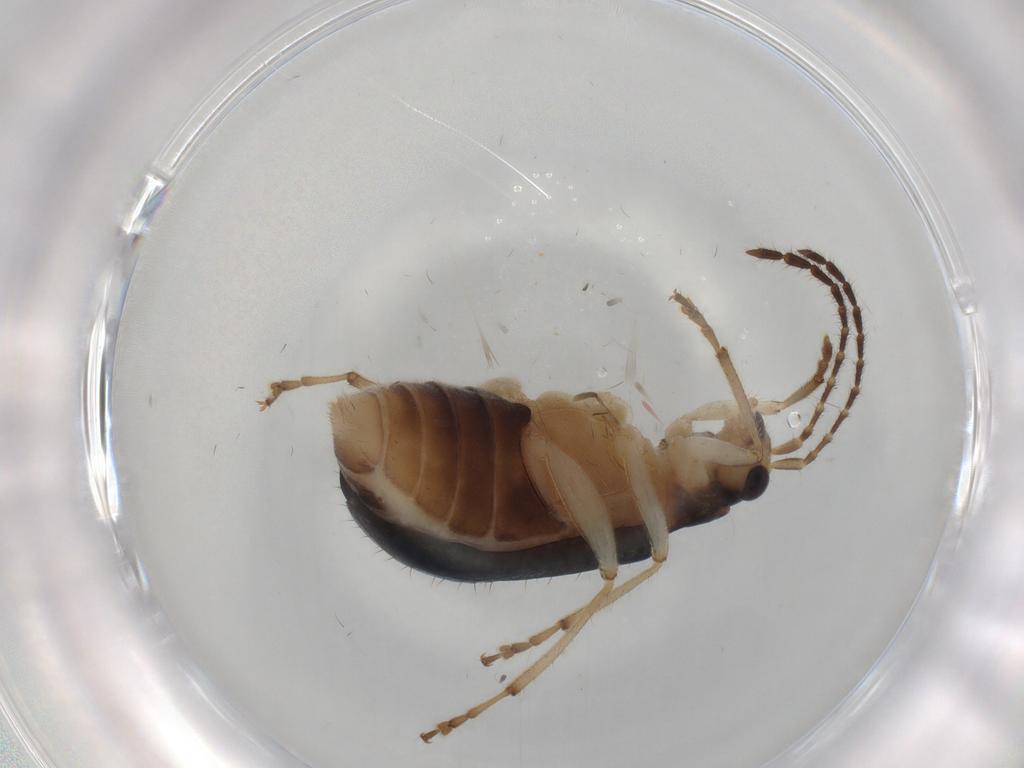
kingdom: Animalia
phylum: Arthropoda
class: Insecta
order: Coleoptera
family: Chrysomelidae
